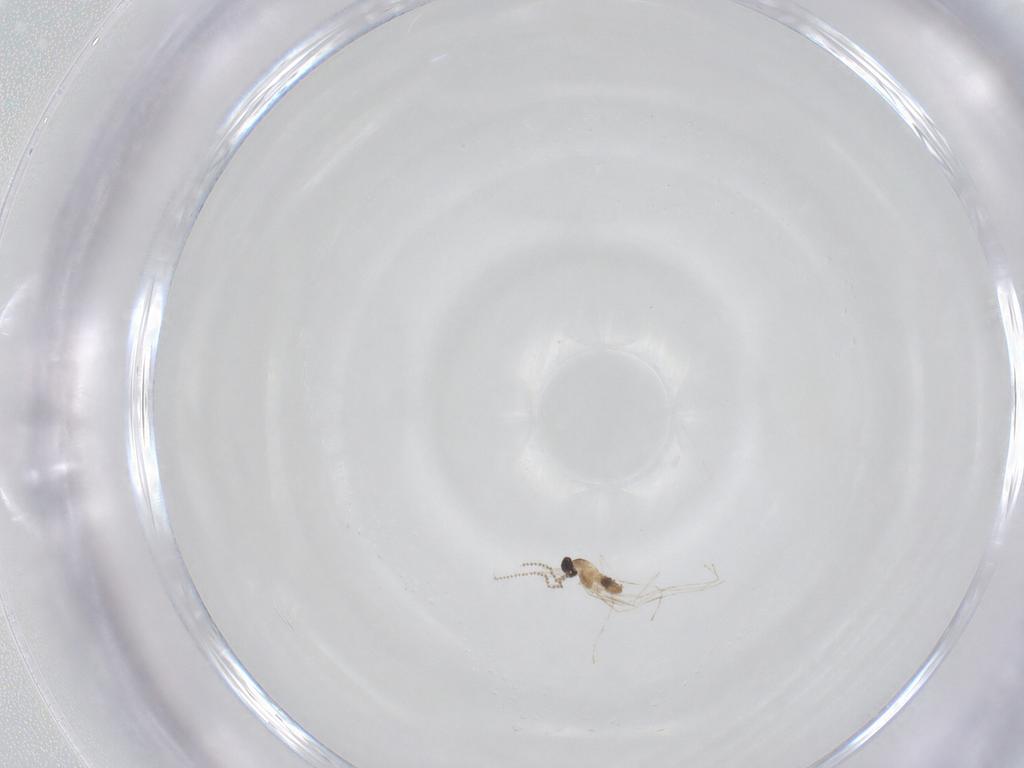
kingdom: Animalia
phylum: Arthropoda
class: Insecta
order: Diptera
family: Cecidomyiidae
